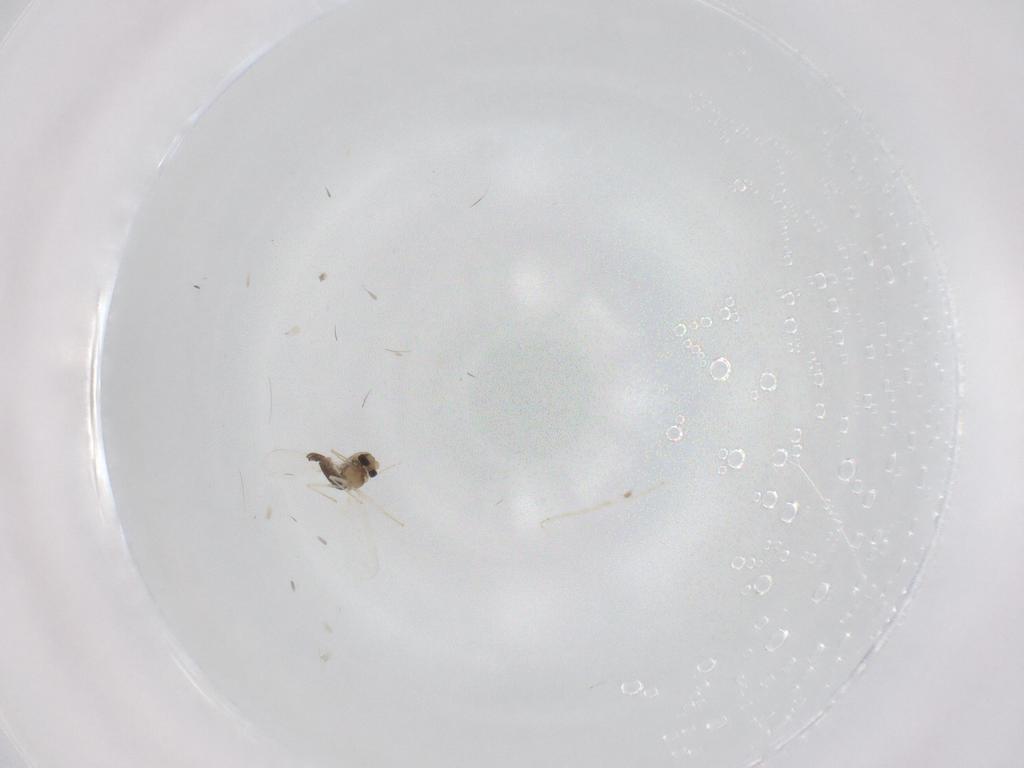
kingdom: Animalia
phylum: Arthropoda
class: Insecta
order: Diptera
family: Chironomidae
